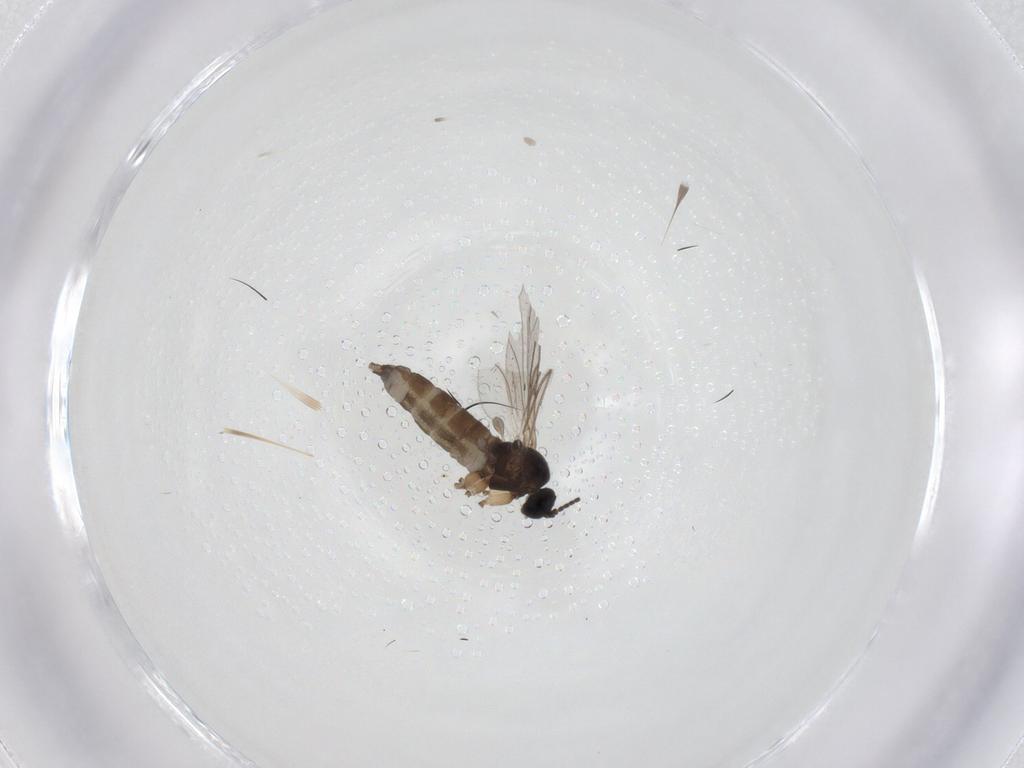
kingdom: Animalia
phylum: Arthropoda
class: Insecta
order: Diptera
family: Sciaridae
